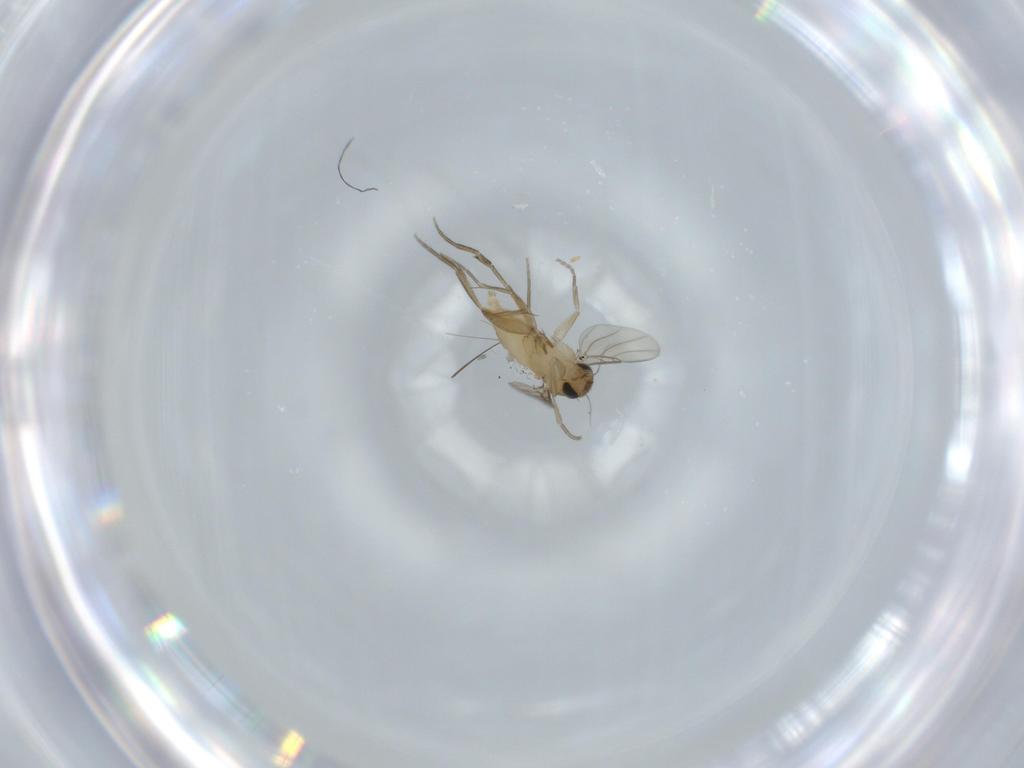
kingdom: Animalia
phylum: Arthropoda
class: Insecta
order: Diptera
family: Phoridae
